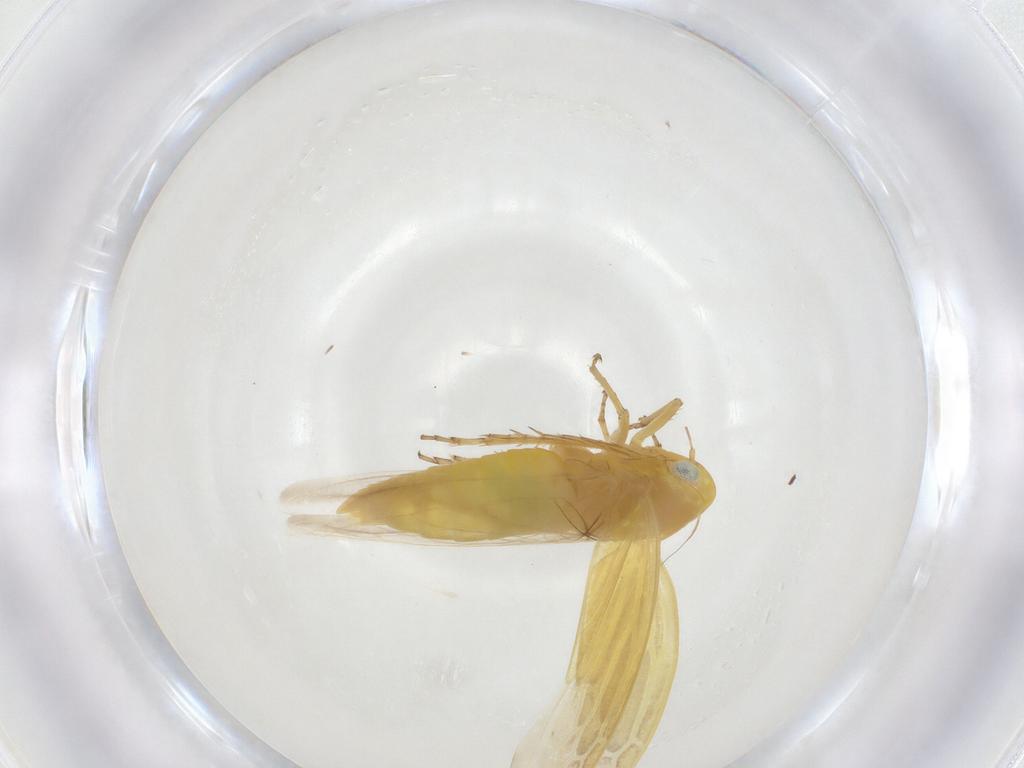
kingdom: Animalia
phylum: Arthropoda
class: Insecta
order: Hemiptera
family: Cicadellidae
